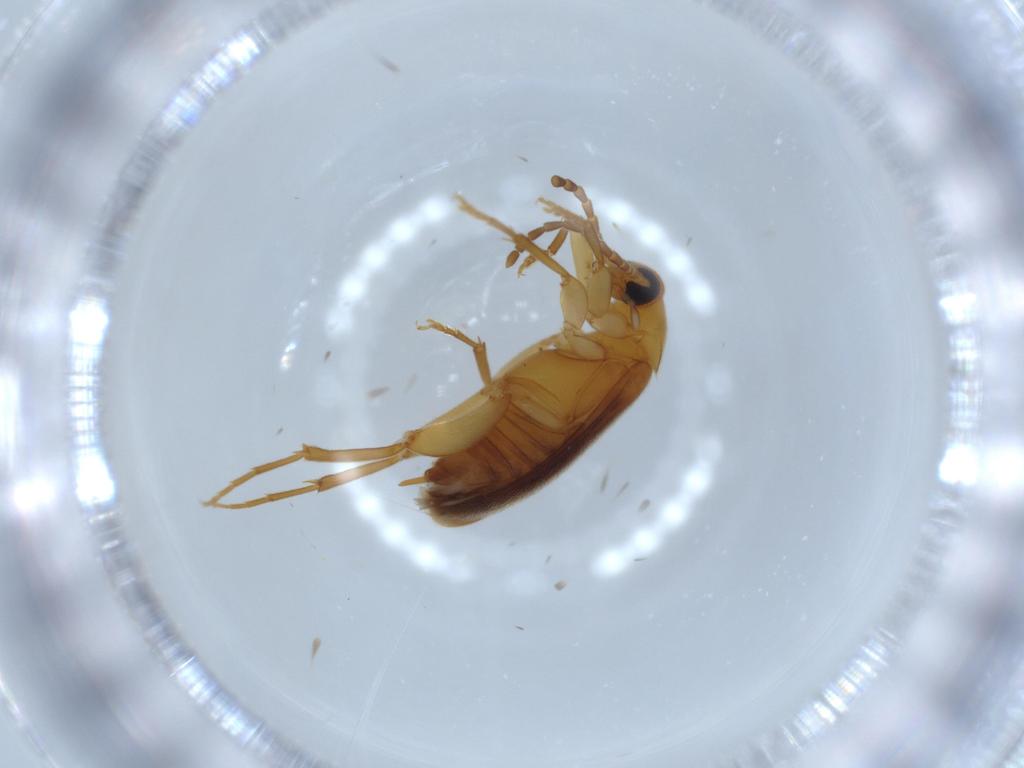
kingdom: Animalia
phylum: Arthropoda
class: Insecta
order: Coleoptera
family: Scraptiidae
